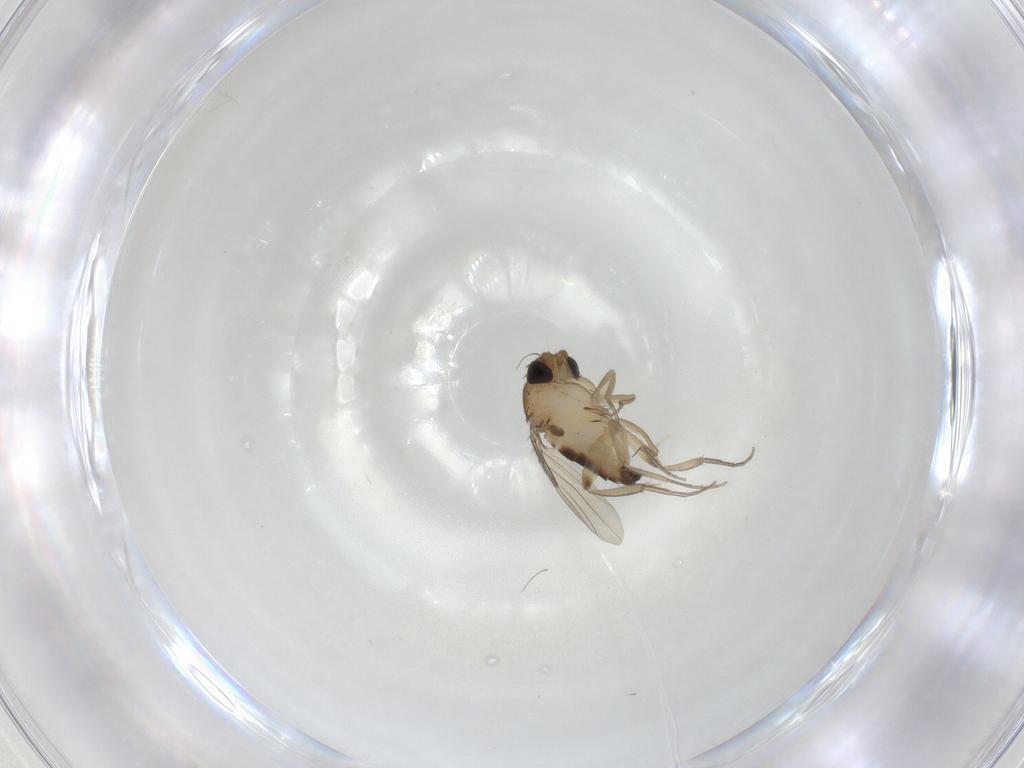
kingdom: Animalia
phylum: Arthropoda
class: Insecta
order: Diptera
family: Phoridae
